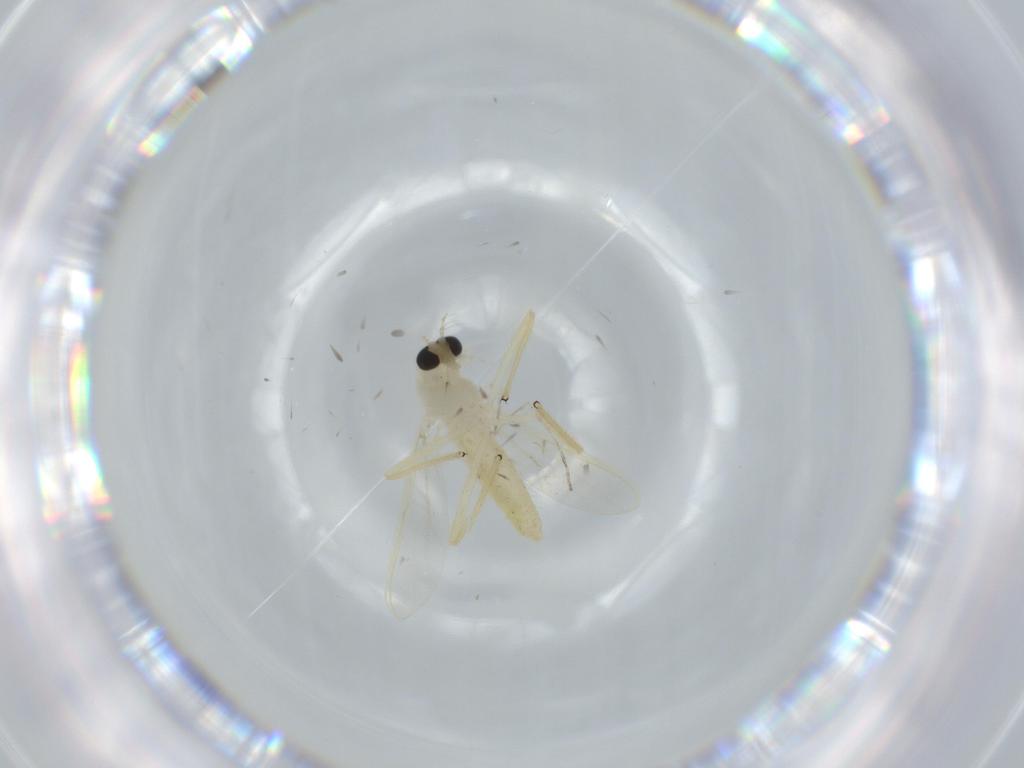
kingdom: Animalia
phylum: Arthropoda
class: Insecta
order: Diptera
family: Chironomidae
